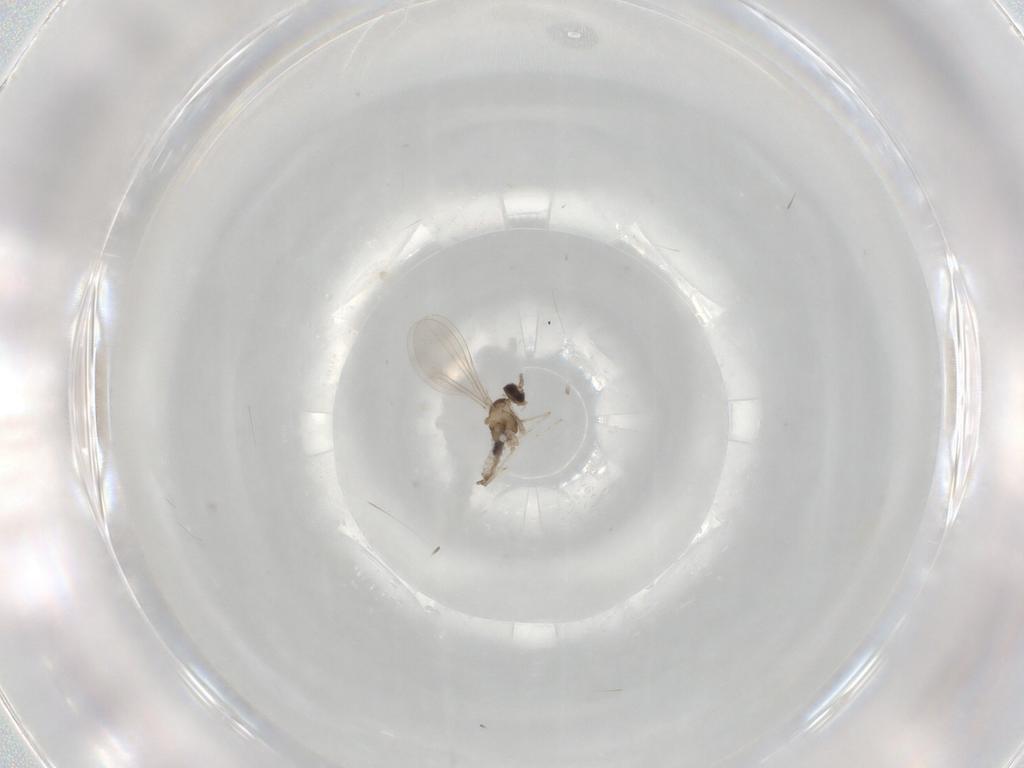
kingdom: Animalia
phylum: Arthropoda
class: Insecta
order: Diptera
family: Cecidomyiidae
